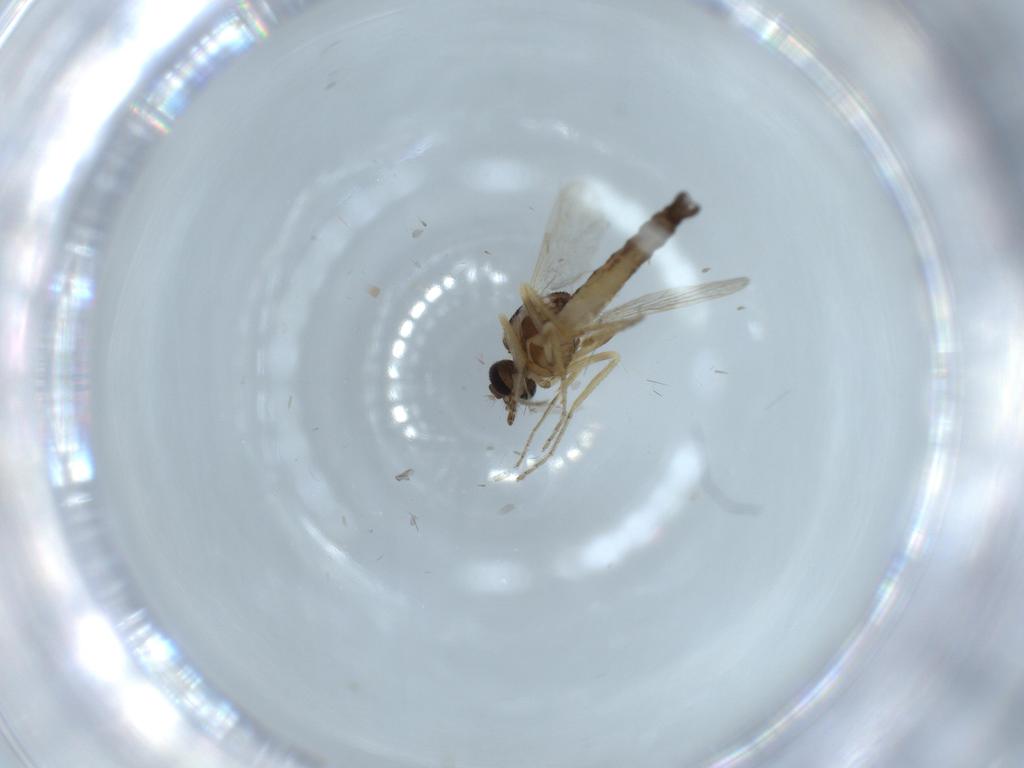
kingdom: Animalia
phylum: Arthropoda
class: Insecta
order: Diptera
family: Ceratopogonidae
